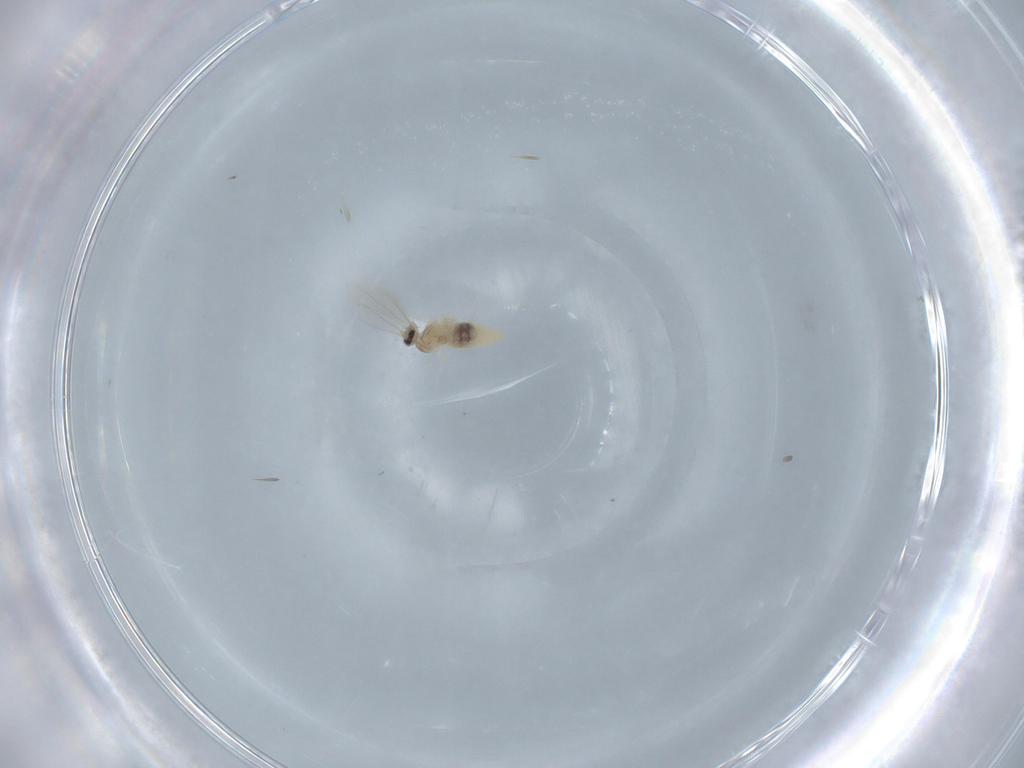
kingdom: Animalia
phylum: Arthropoda
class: Insecta
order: Diptera
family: Cecidomyiidae
